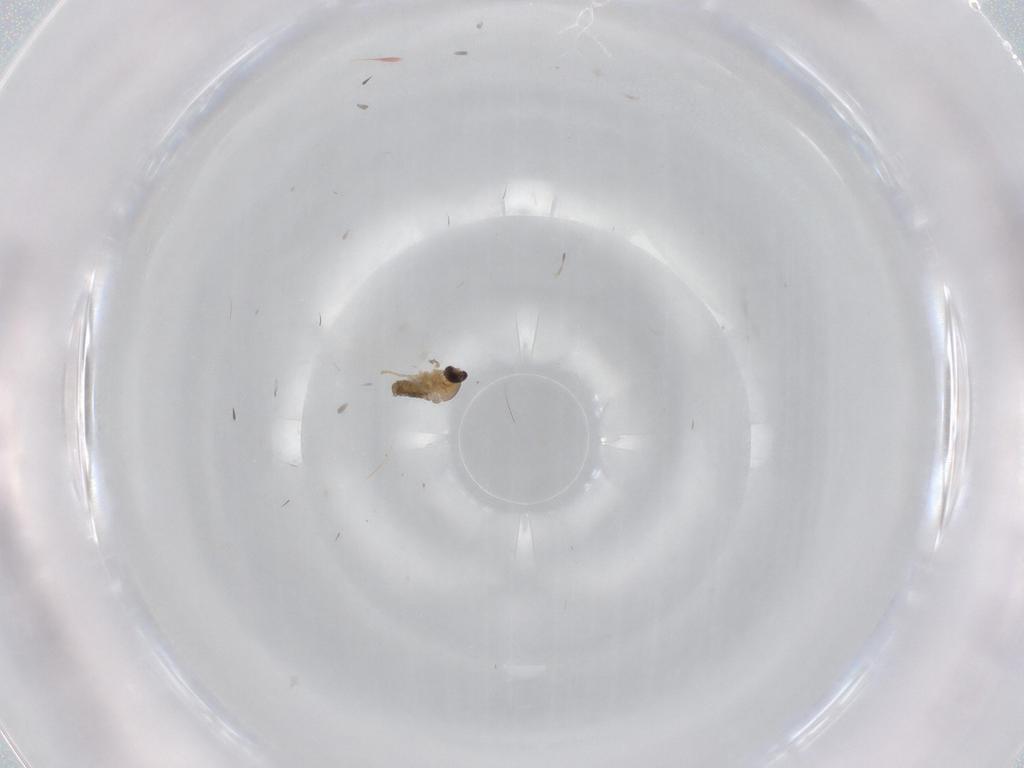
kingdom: Animalia
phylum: Arthropoda
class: Insecta
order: Diptera
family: Cecidomyiidae
